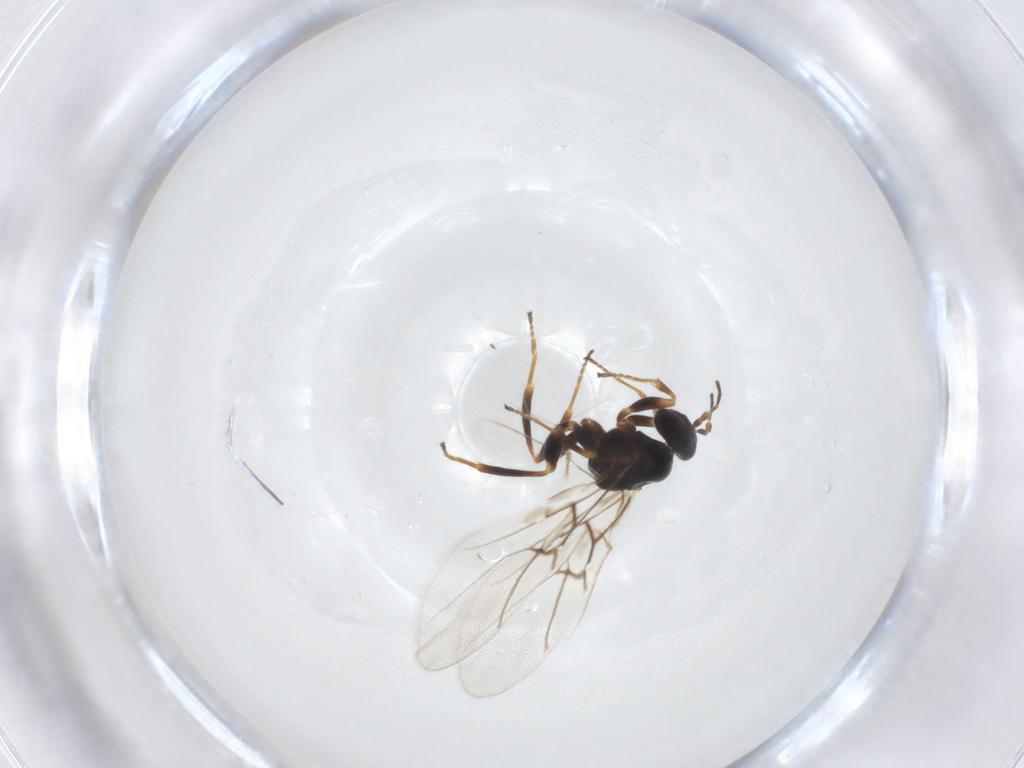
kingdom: Animalia
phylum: Arthropoda
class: Insecta
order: Hymenoptera
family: Cynipidae
